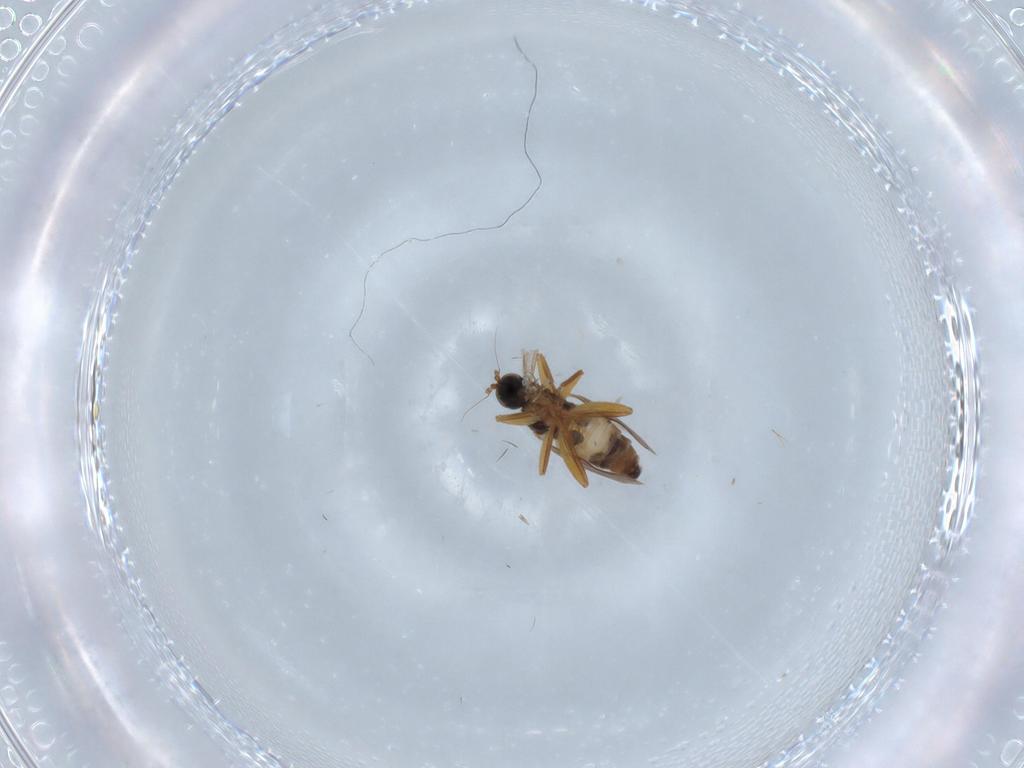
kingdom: Animalia
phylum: Arthropoda
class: Insecta
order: Diptera
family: Hybotidae
